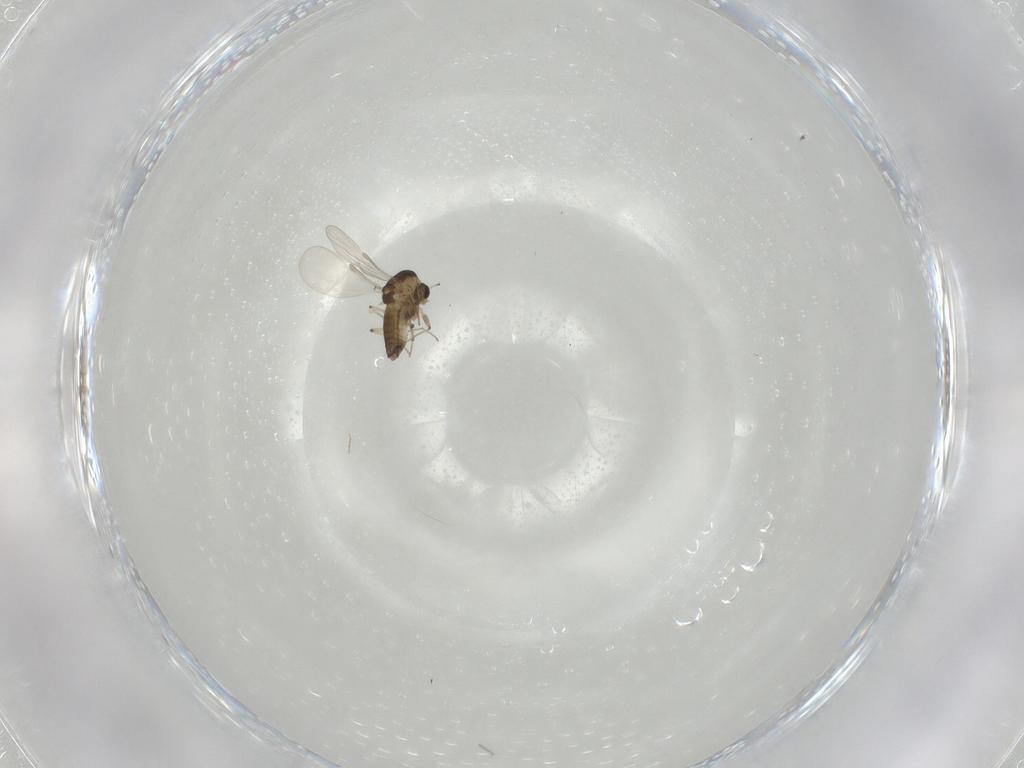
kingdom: Animalia
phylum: Arthropoda
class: Insecta
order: Diptera
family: Chironomidae
